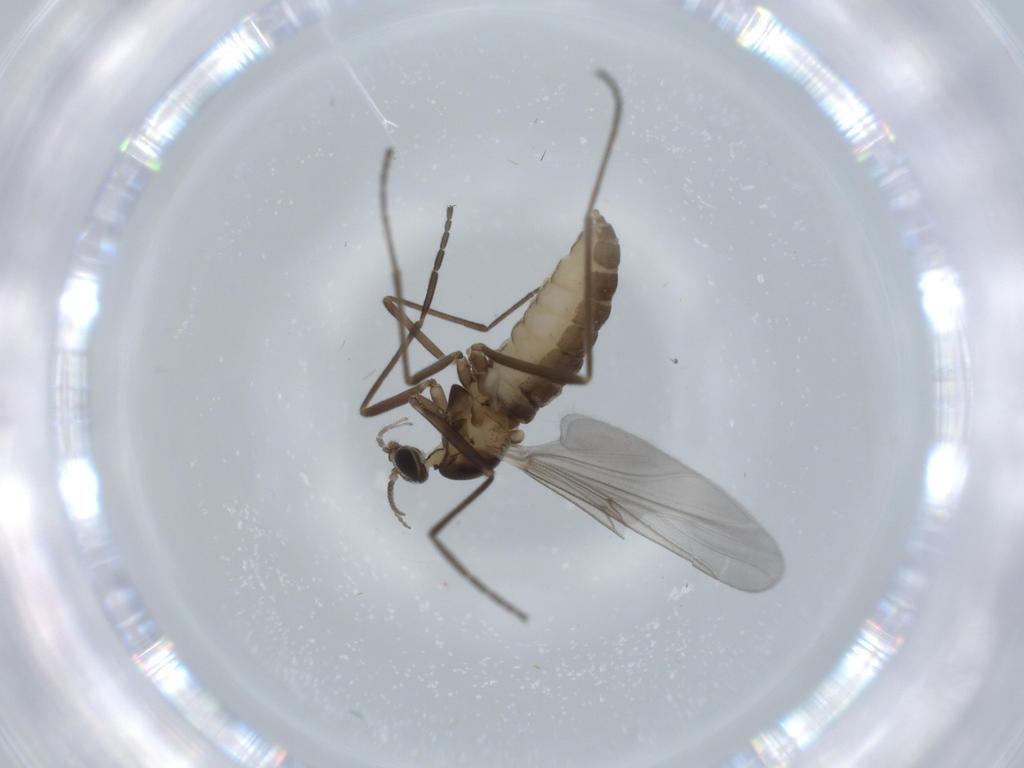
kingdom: Animalia
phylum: Arthropoda
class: Insecta
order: Diptera
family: Cecidomyiidae
